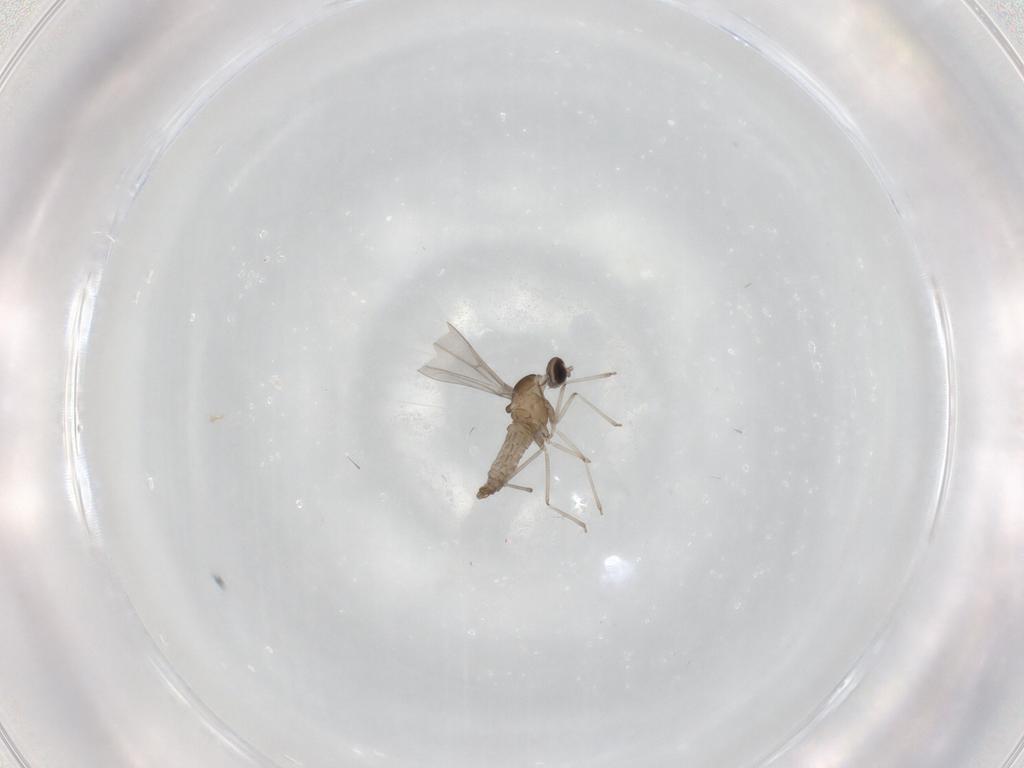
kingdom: Animalia
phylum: Arthropoda
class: Insecta
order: Diptera
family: Cecidomyiidae
